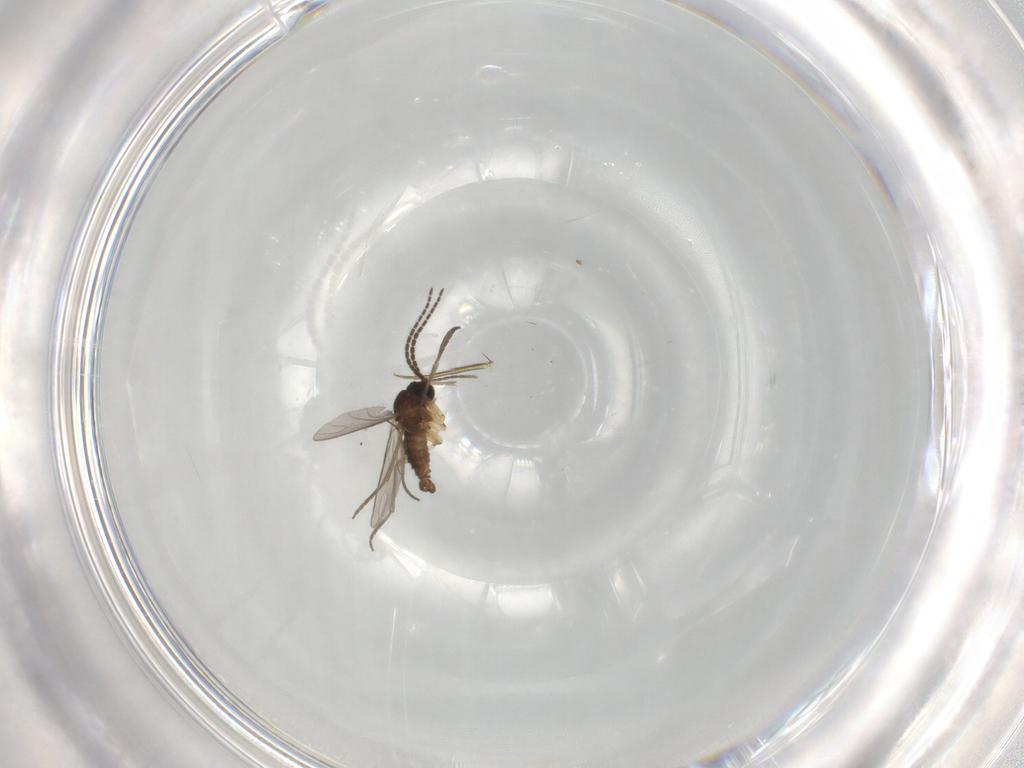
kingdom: Animalia
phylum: Arthropoda
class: Insecta
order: Diptera
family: Sciaridae
